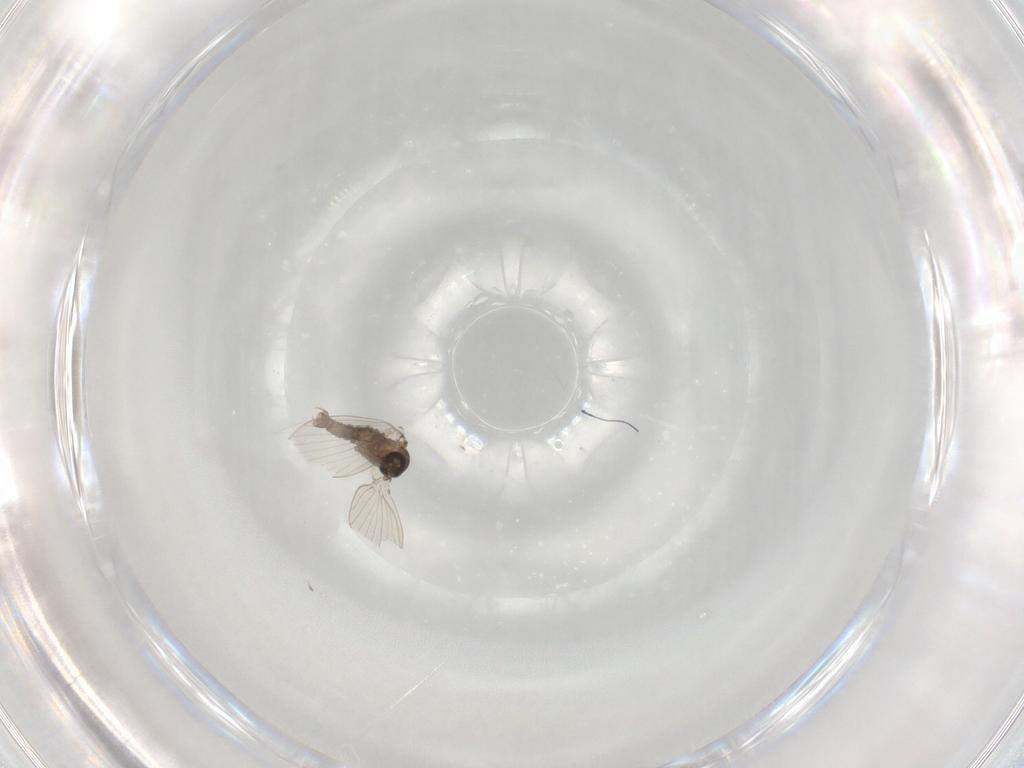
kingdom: Animalia
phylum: Arthropoda
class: Insecta
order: Diptera
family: Psychodidae
